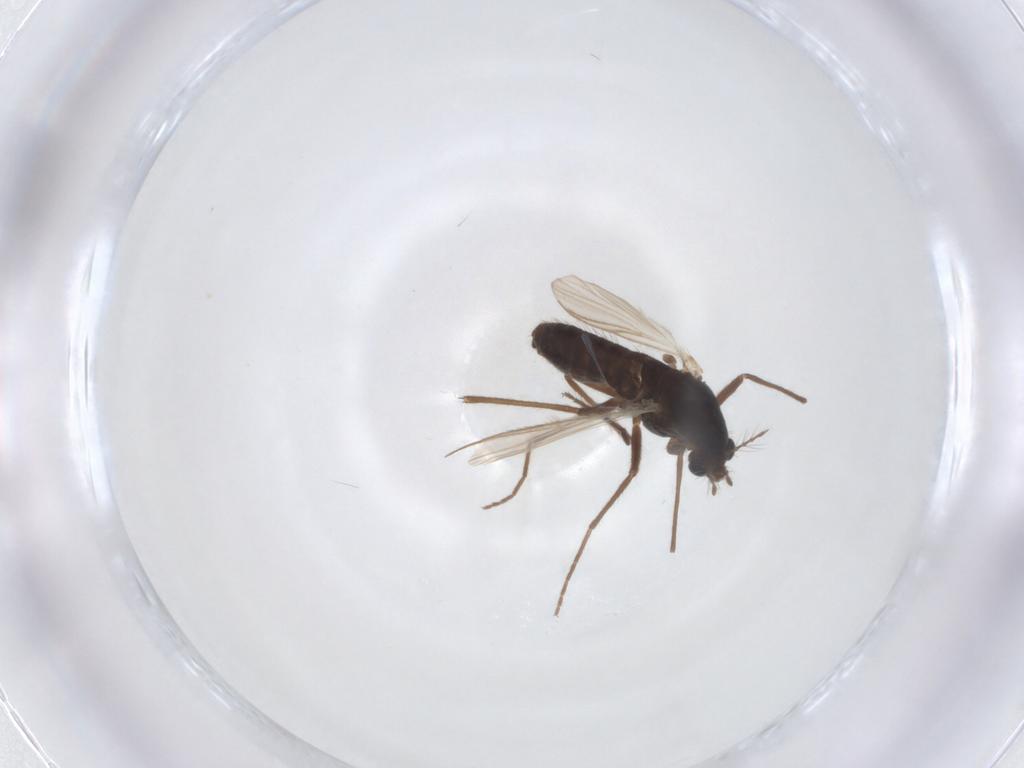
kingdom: Animalia
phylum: Arthropoda
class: Insecta
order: Diptera
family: Chironomidae
